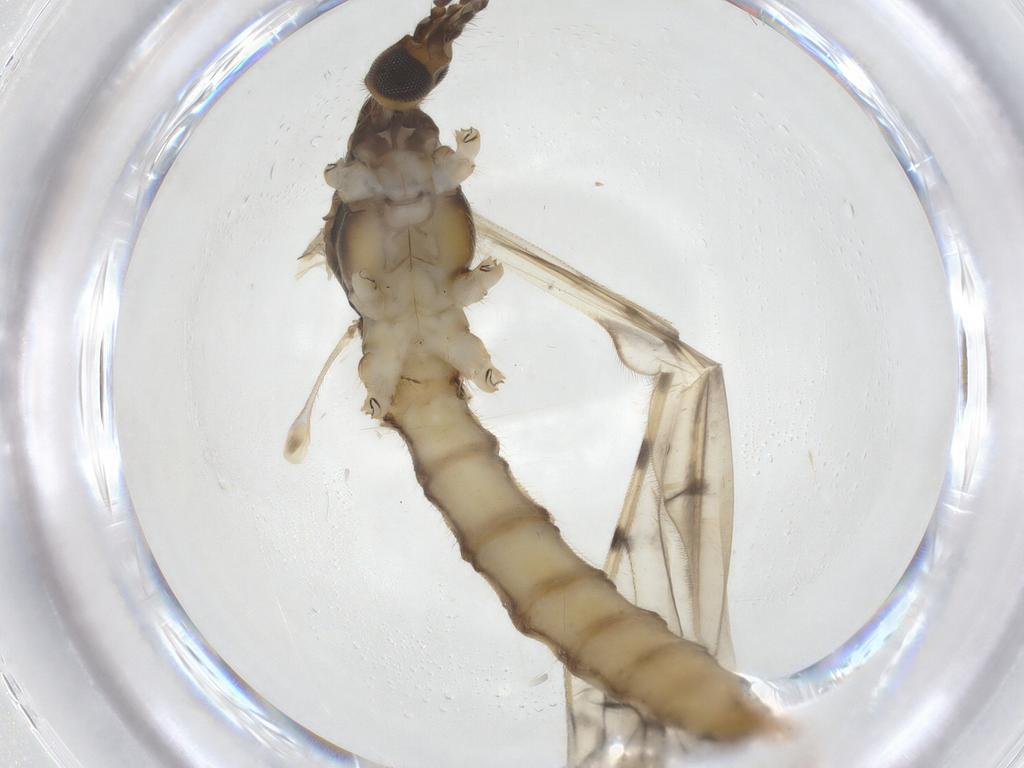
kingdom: Animalia
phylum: Arthropoda
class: Insecta
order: Diptera
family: Limoniidae
